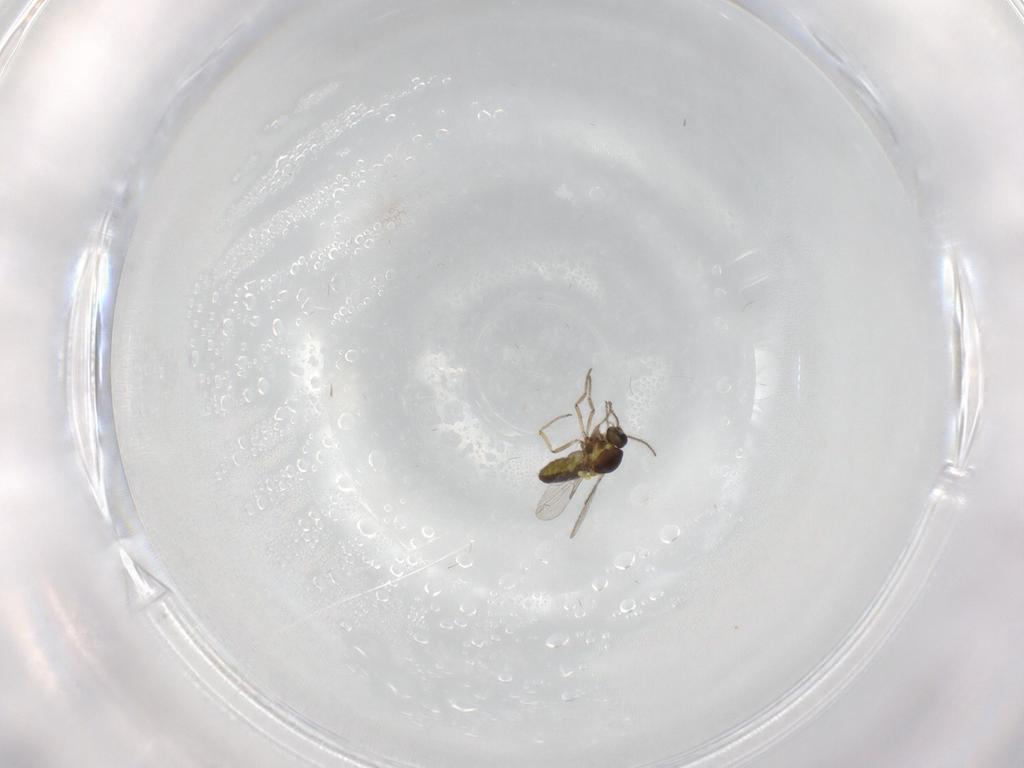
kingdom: Animalia
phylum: Arthropoda
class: Insecta
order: Diptera
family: Ceratopogonidae
